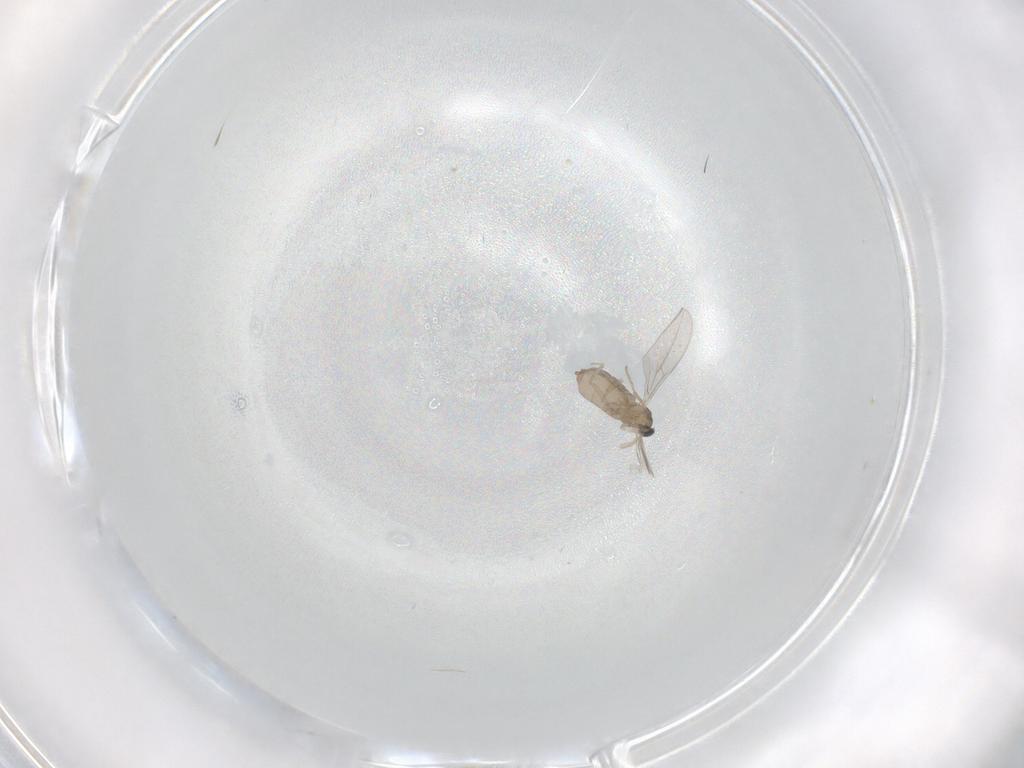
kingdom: Animalia
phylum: Arthropoda
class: Insecta
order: Diptera
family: Cecidomyiidae
